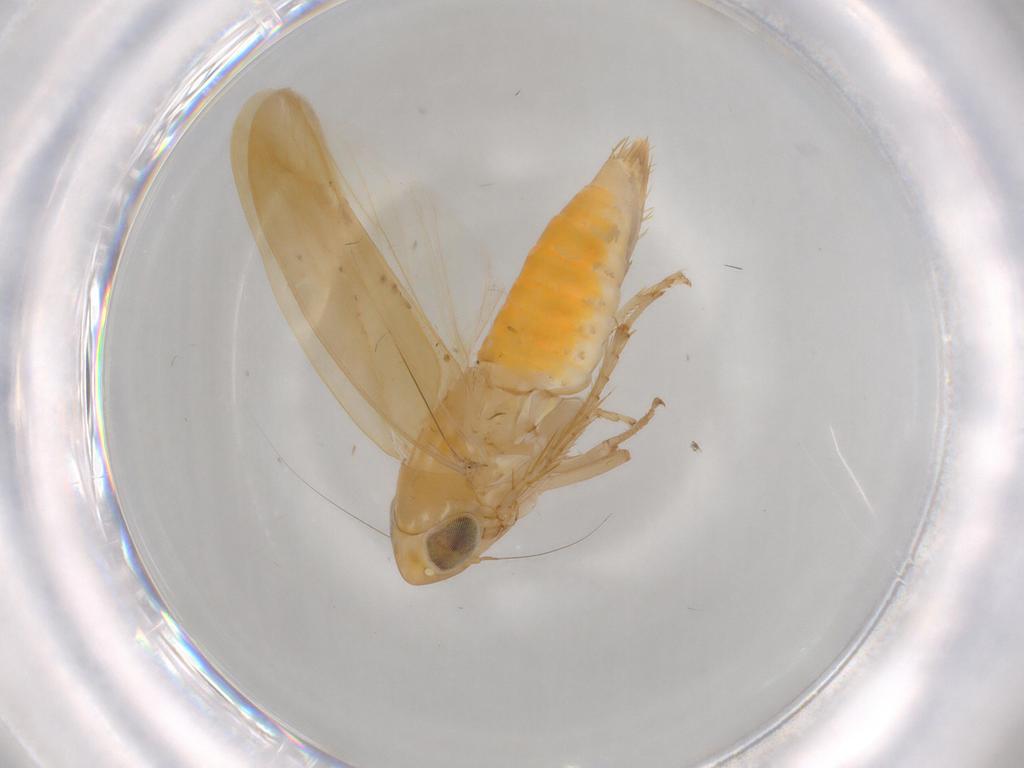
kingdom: Animalia
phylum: Arthropoda
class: Insecta
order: Hemiptera
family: Cicadellidae
